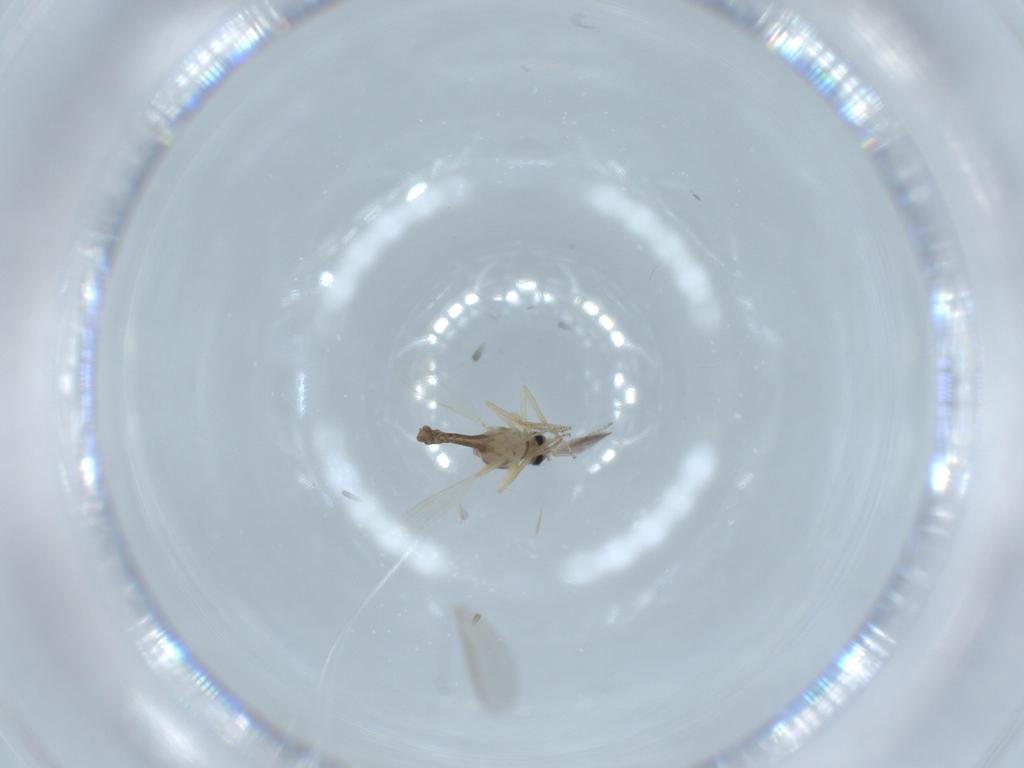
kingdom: Animalia
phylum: Arthropoda
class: Insecta
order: Diptera
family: Ceratopogonidae
